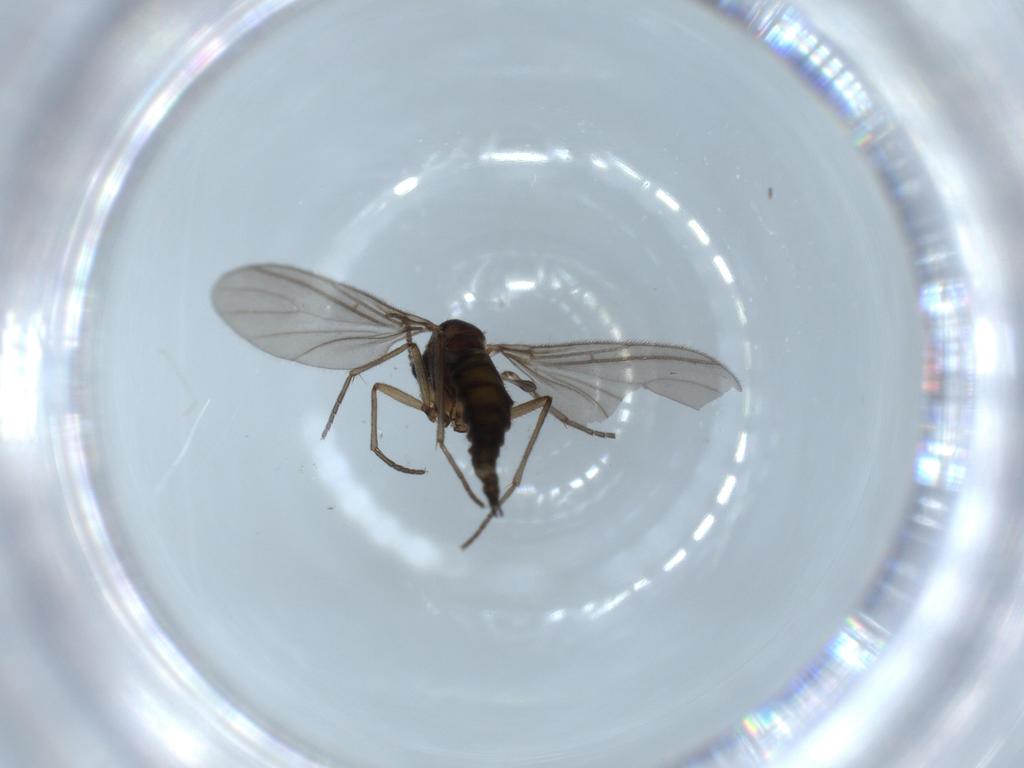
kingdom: Animalia
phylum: Arthropoda
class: Insecta
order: Diptera
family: Sciaridae
